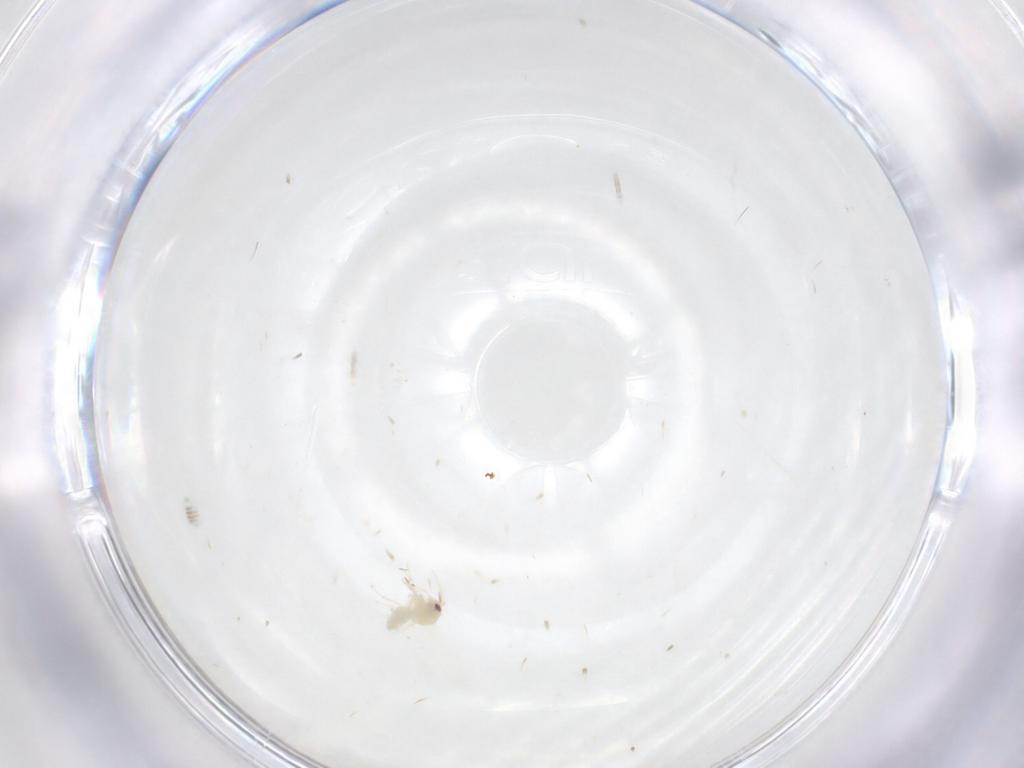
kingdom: Animalia
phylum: Arthropoda
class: Insecta
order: Hemiptera
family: Aleyrodidae
